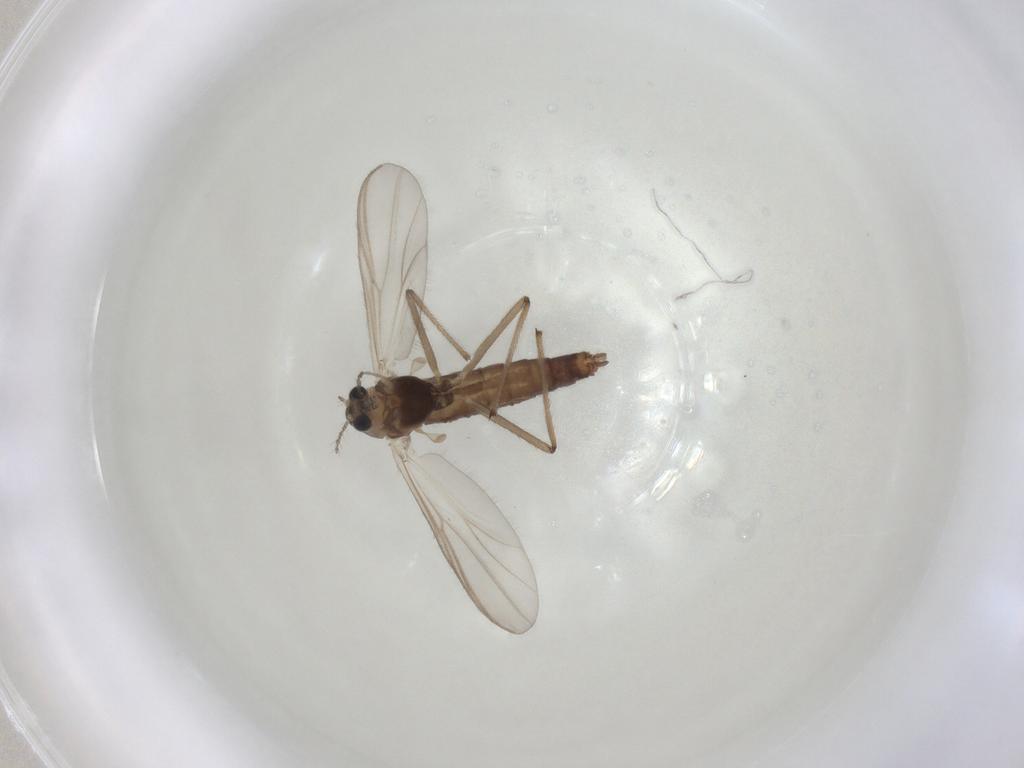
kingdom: Animalia
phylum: Arthropoda
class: Insecta
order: Diptera
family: Chironomidae
